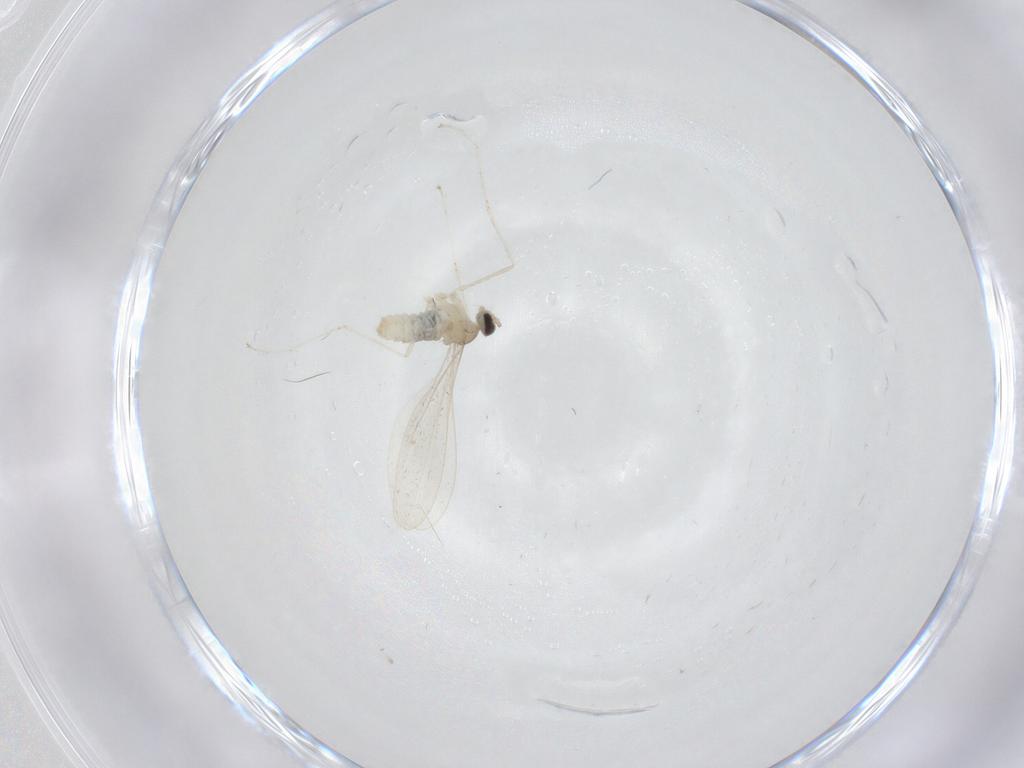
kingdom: Animalia
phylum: Arthropoda
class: Insecta
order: Diptera
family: Cecidomyiidae
